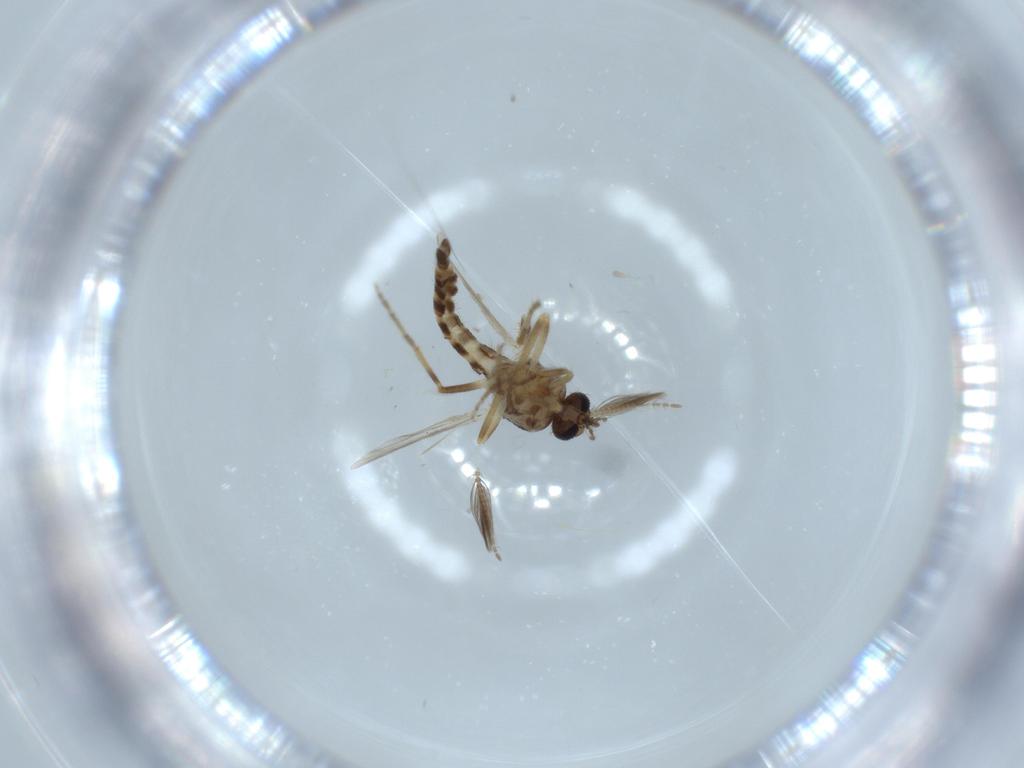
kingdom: Animalia
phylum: Arthropoda
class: Insecta
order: Diptera
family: Ceratopogonidae
